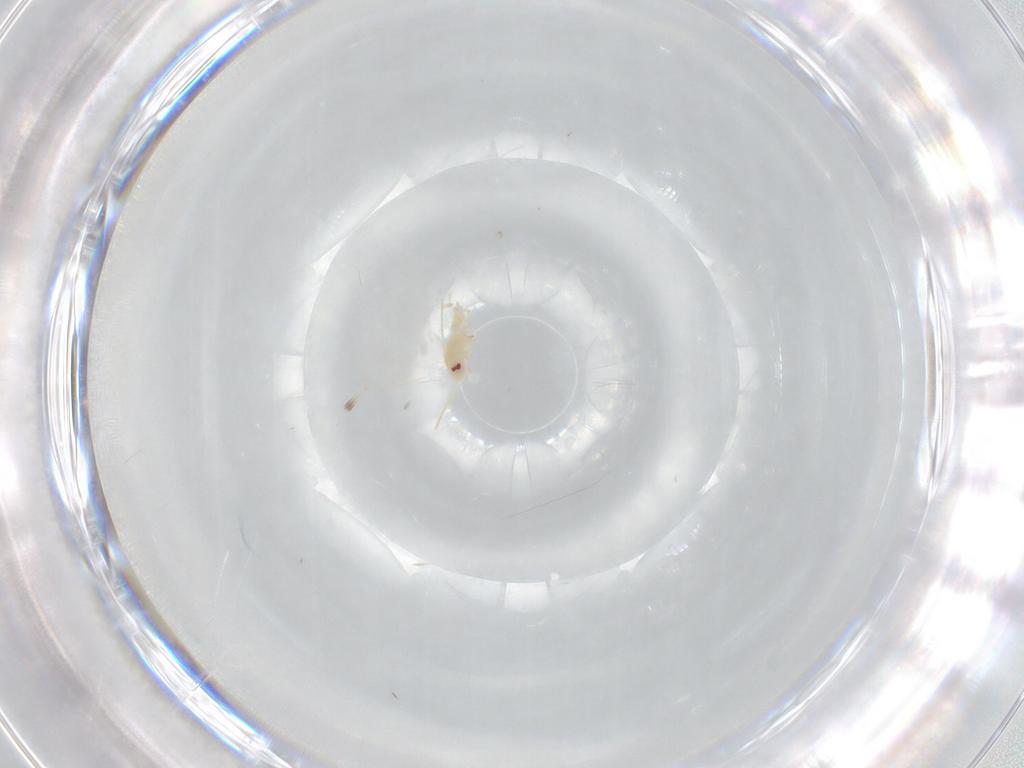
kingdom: Animalia
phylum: Arthropoda
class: Insecta
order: Hemiptera
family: Aleyrodidae
